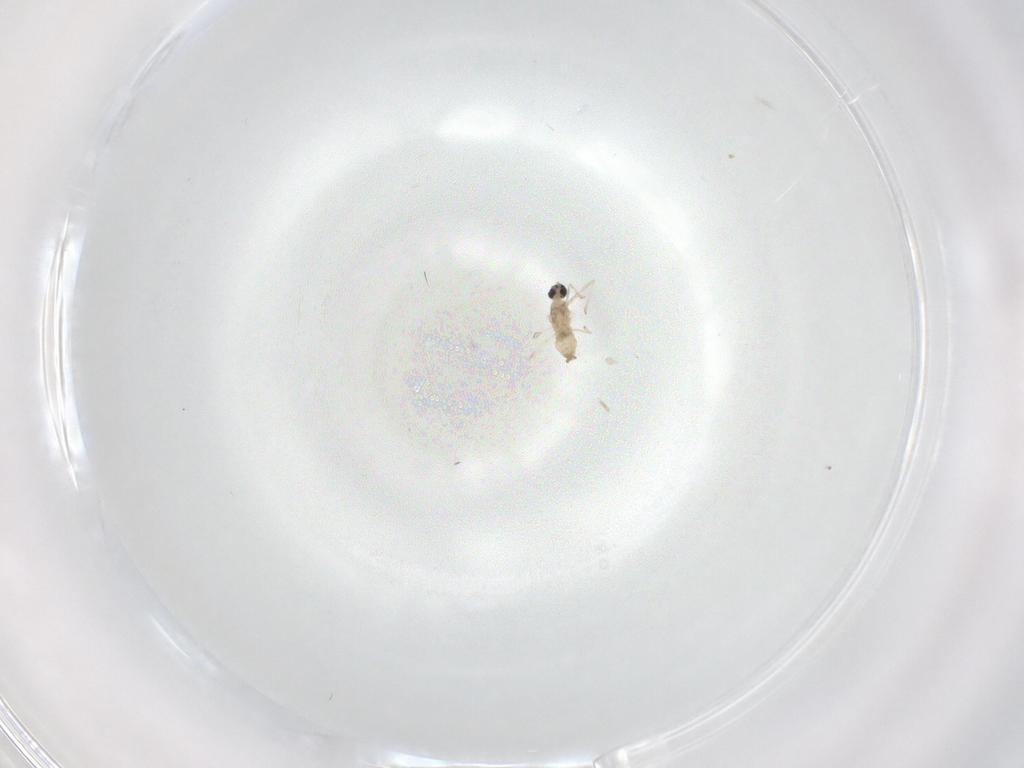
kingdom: Animalia
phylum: Arthropoda
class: Insecta
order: Diptera
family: Cecidomyiidae
